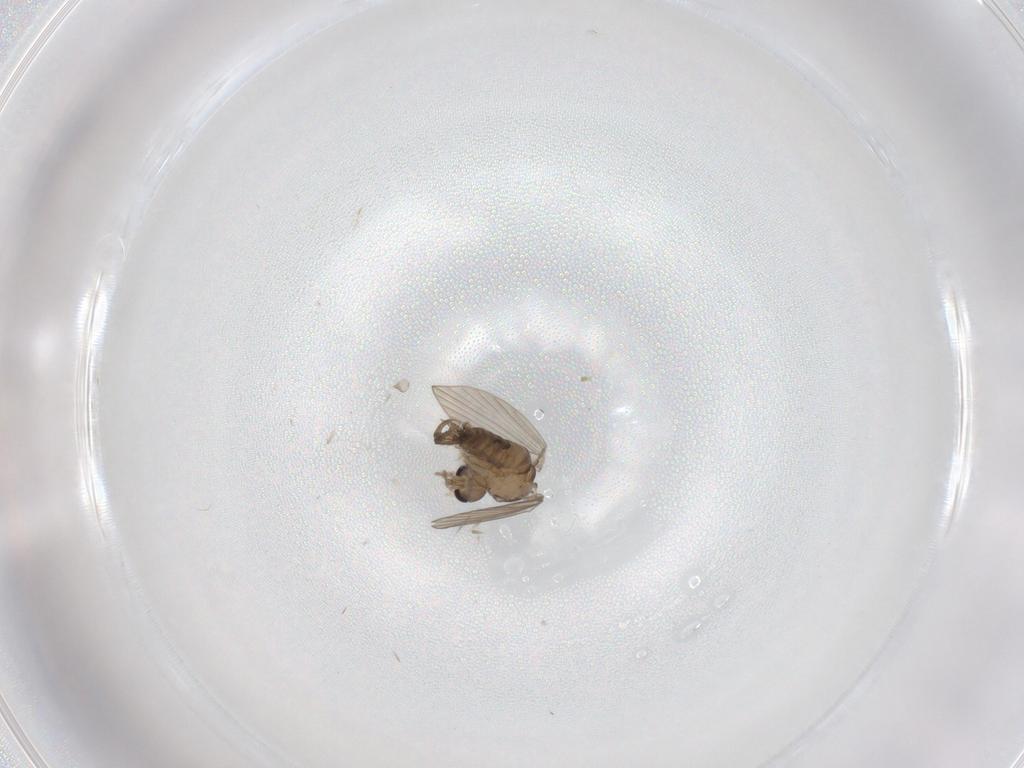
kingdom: Animalia
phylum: Arthropoda
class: Insecta
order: Diptera
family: Psychodidae
